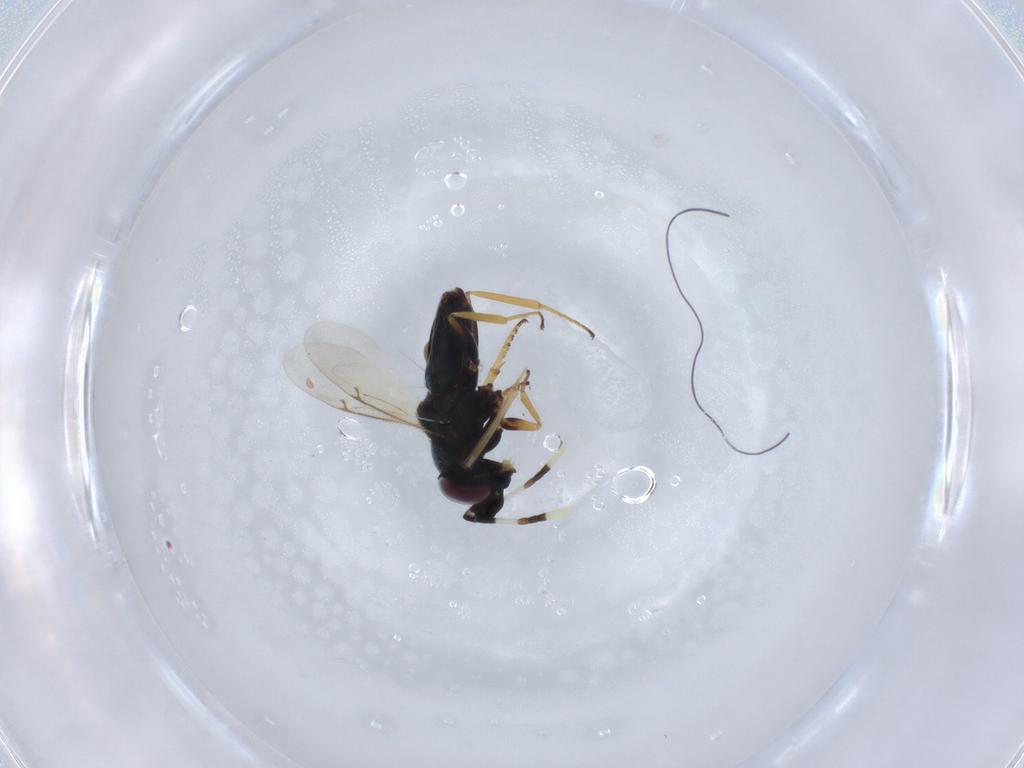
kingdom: Animalia
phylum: Arthropoda
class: Insecta
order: Hymenoptera
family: Encyrtidae
